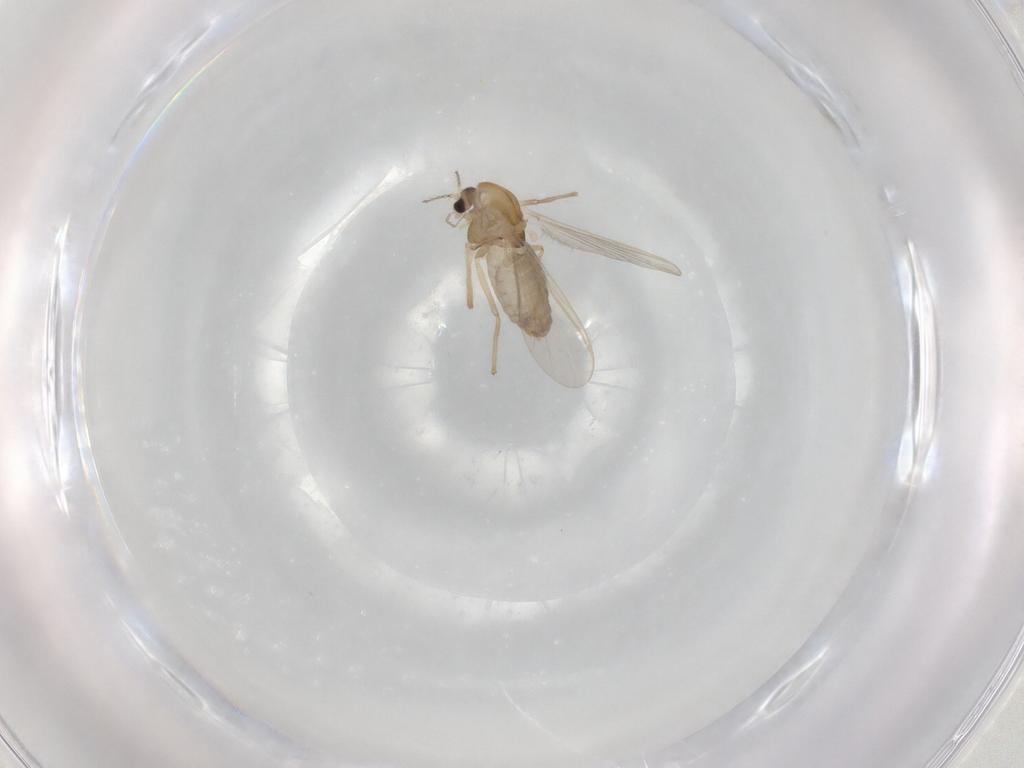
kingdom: Animalia
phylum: Arthropoda
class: Insecta
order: Diptera
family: Chironomidae
